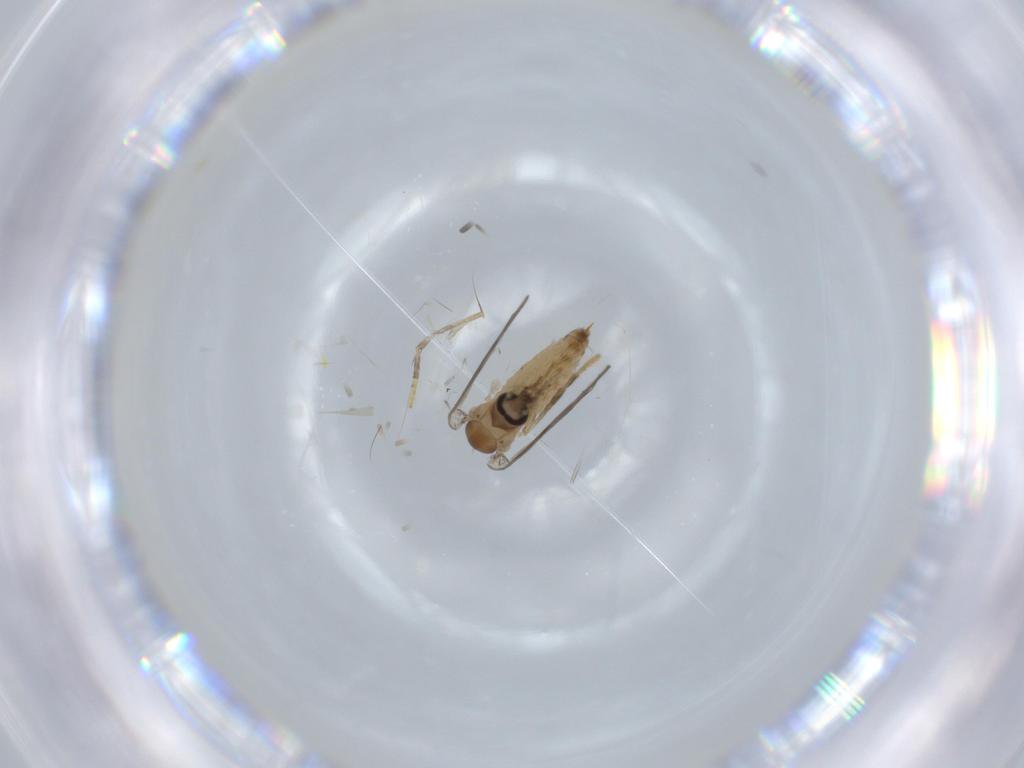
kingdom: Animalia
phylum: Arthropoda
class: Insecta
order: Diptera
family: Psychodidae
